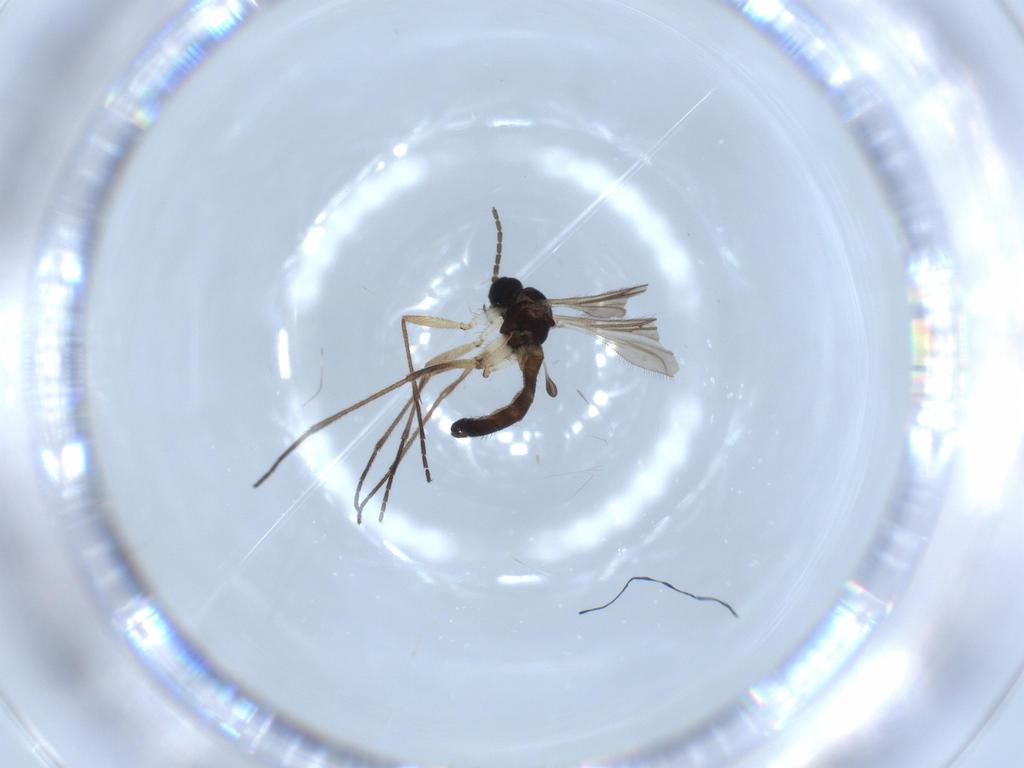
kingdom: Animalia
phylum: Arthropoda
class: Insecta
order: Diptera
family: Sciaridae
